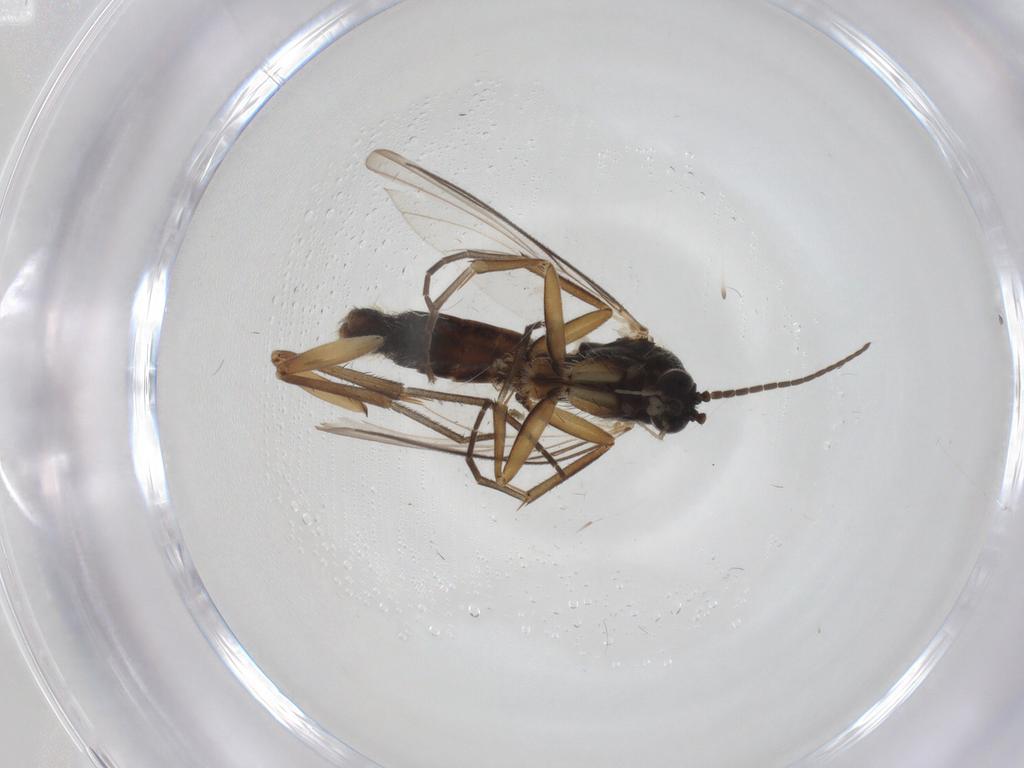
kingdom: Animalia
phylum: Arthropoda
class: Insecta
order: Diptera
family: Mycetophilidae
